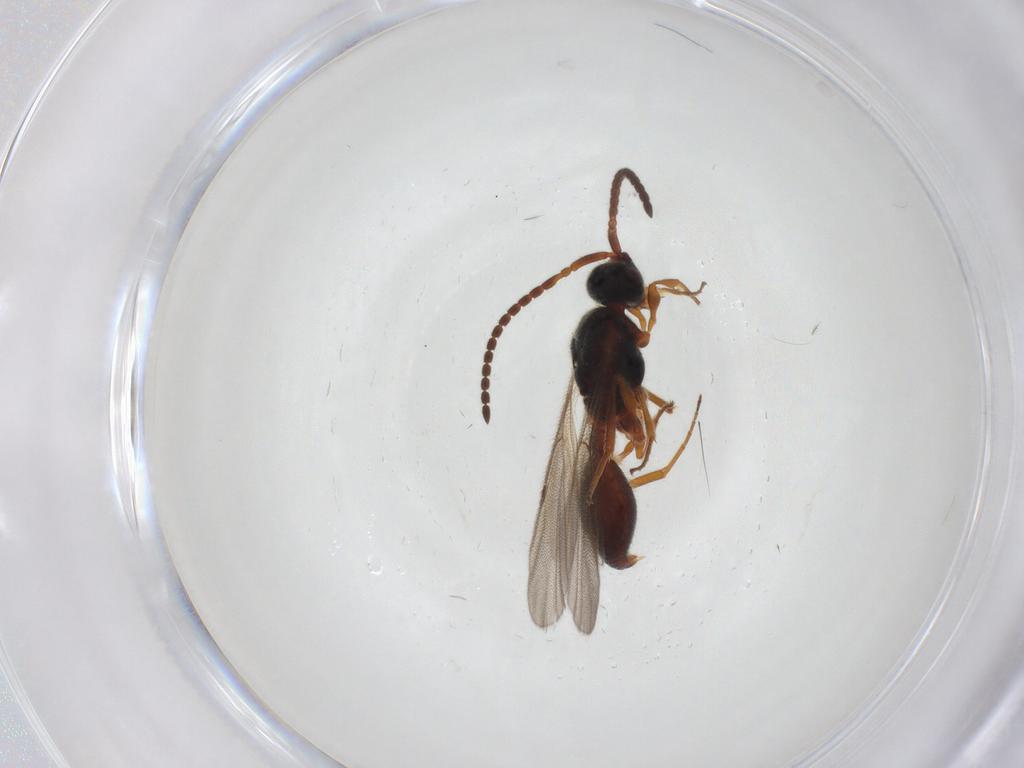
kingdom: Animalia
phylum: Arthropoda
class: Insecta
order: Hymenoptera
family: Braconidae
